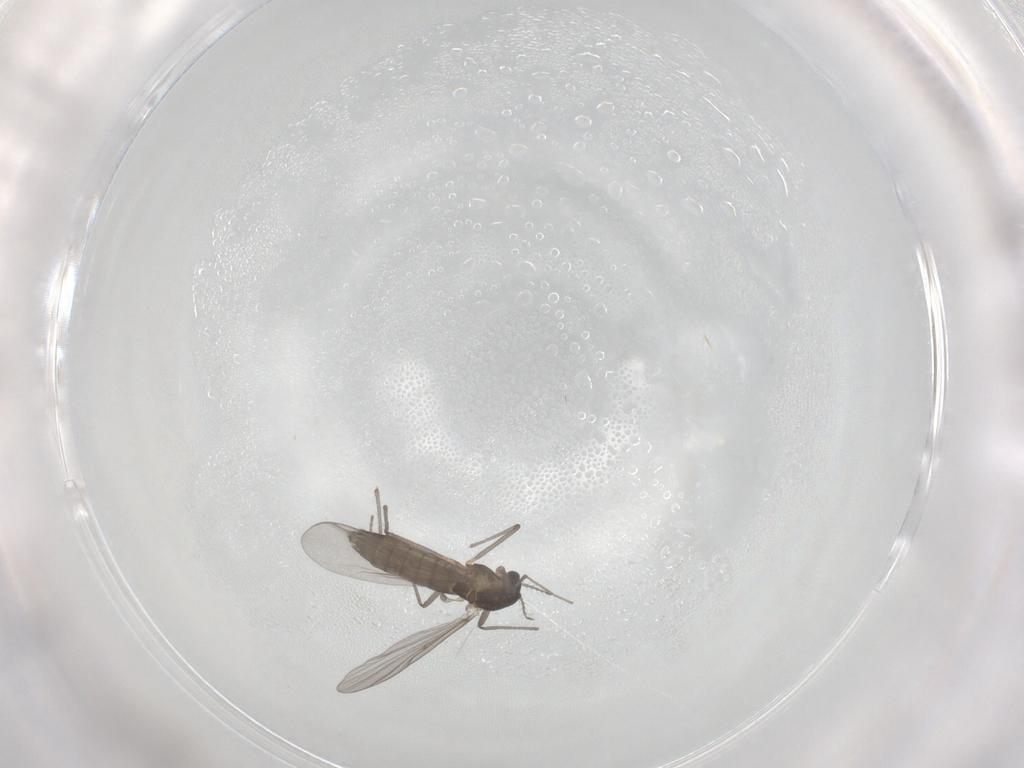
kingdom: Animalia
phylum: Arthropoda
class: Insecta
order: Diptera
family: Chironomidae
